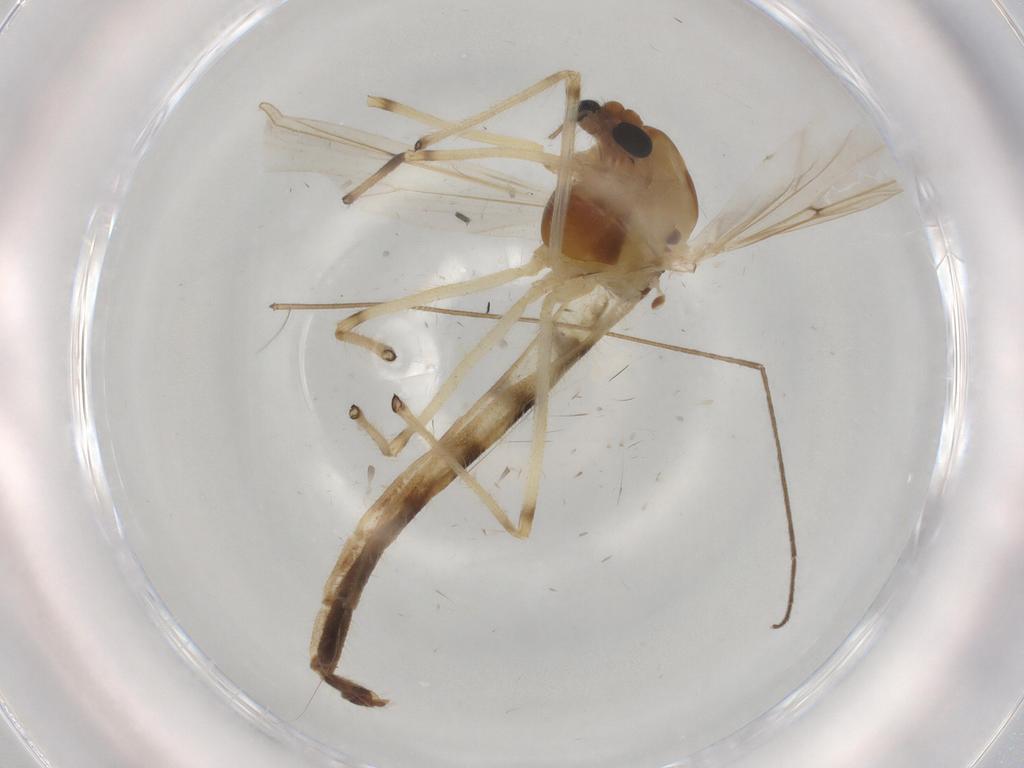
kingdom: Animalia
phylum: Arthropoda
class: Insecta
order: Diptera
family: Chironomidae
